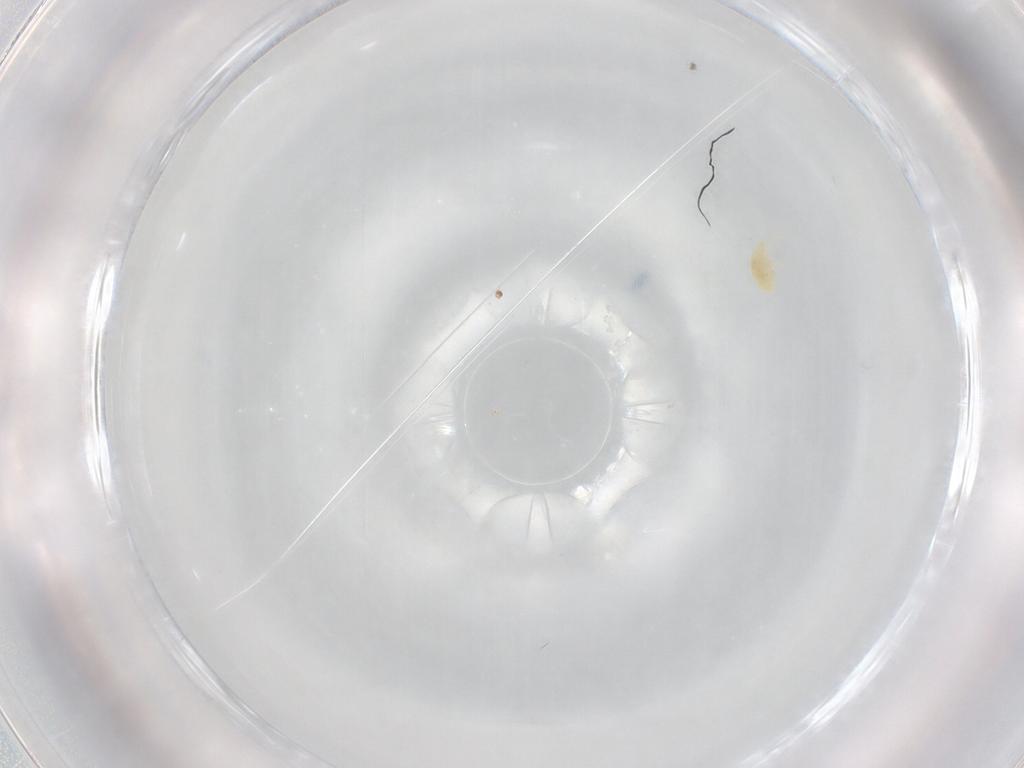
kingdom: Animalia
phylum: Arthropoda
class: Arachnida
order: Trombidiformes
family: Eupodidae
